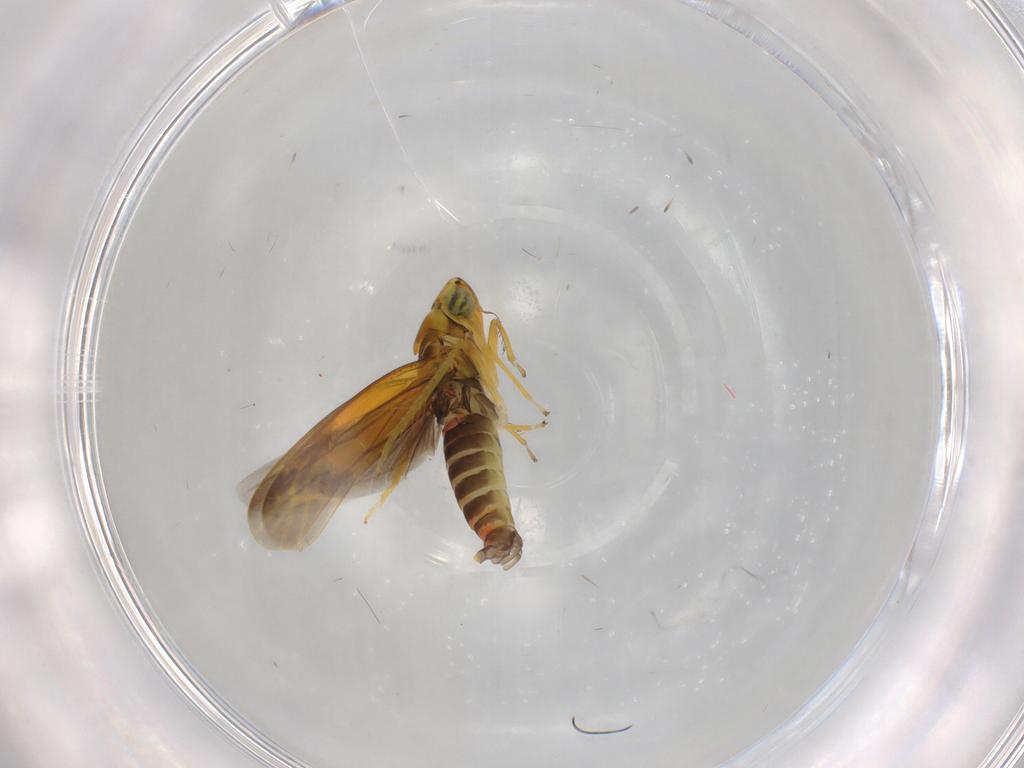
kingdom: Animalia
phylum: Arthropoda
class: Insecta
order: Hemiptera
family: Cicadellidae
